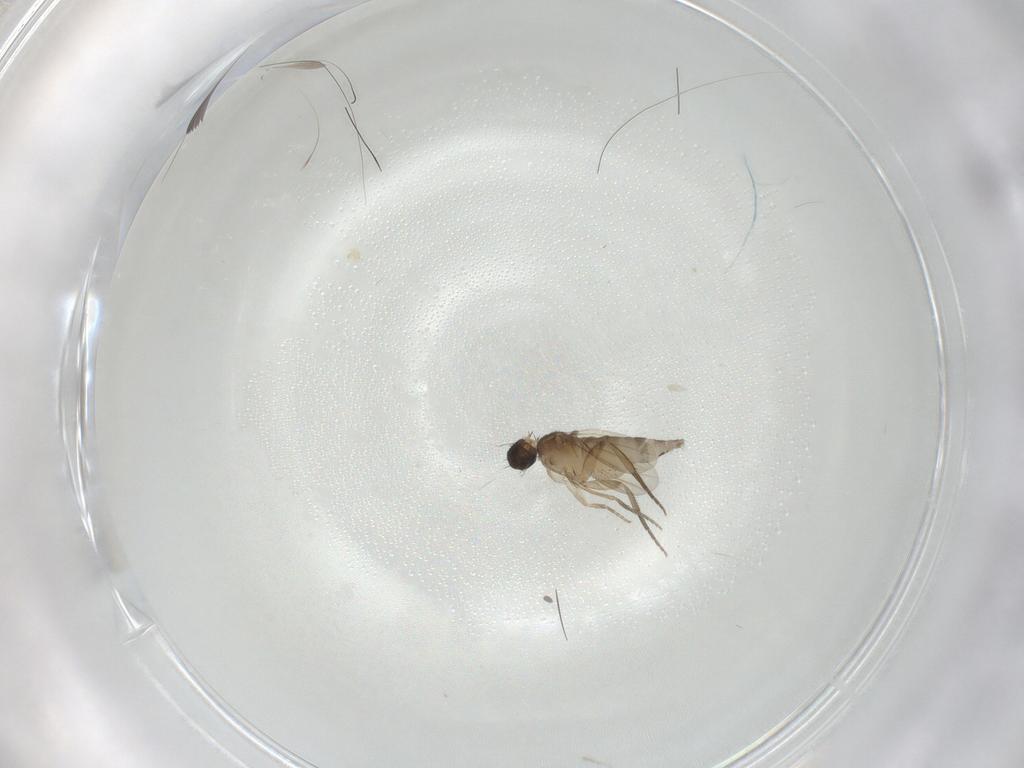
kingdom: Animalia
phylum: Arthropoda
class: Insecta
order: Diptera
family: Phoridae
